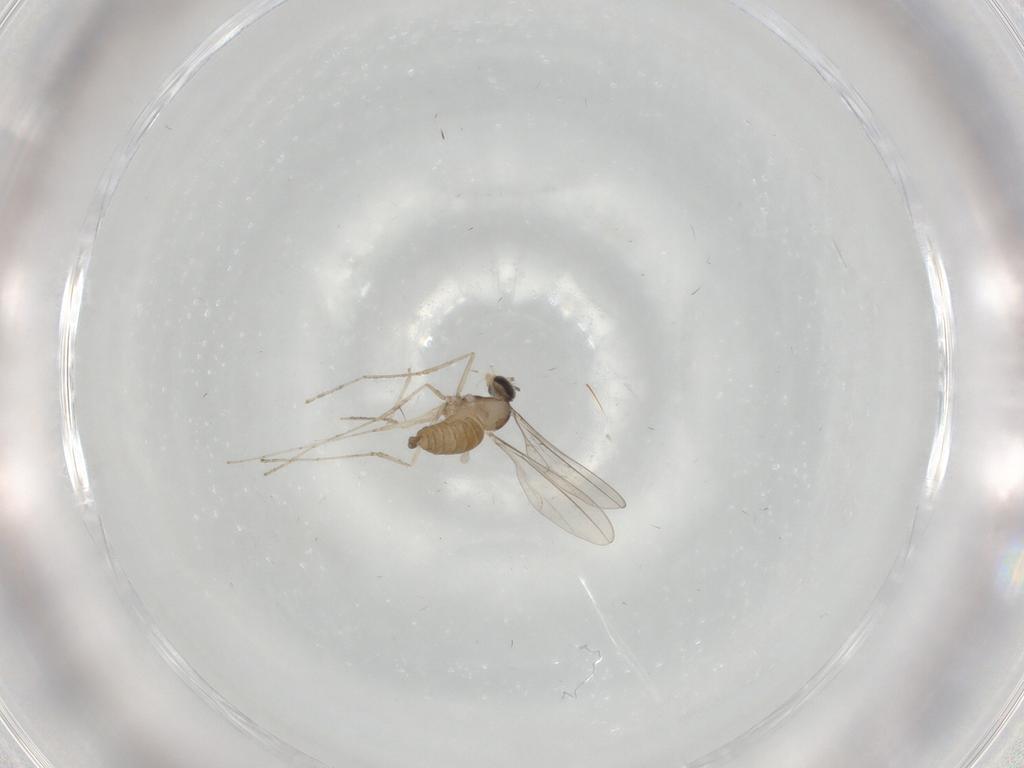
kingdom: Animalia
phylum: Arthropoda
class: Insecta
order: Diptera
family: Cecidomyiidae
